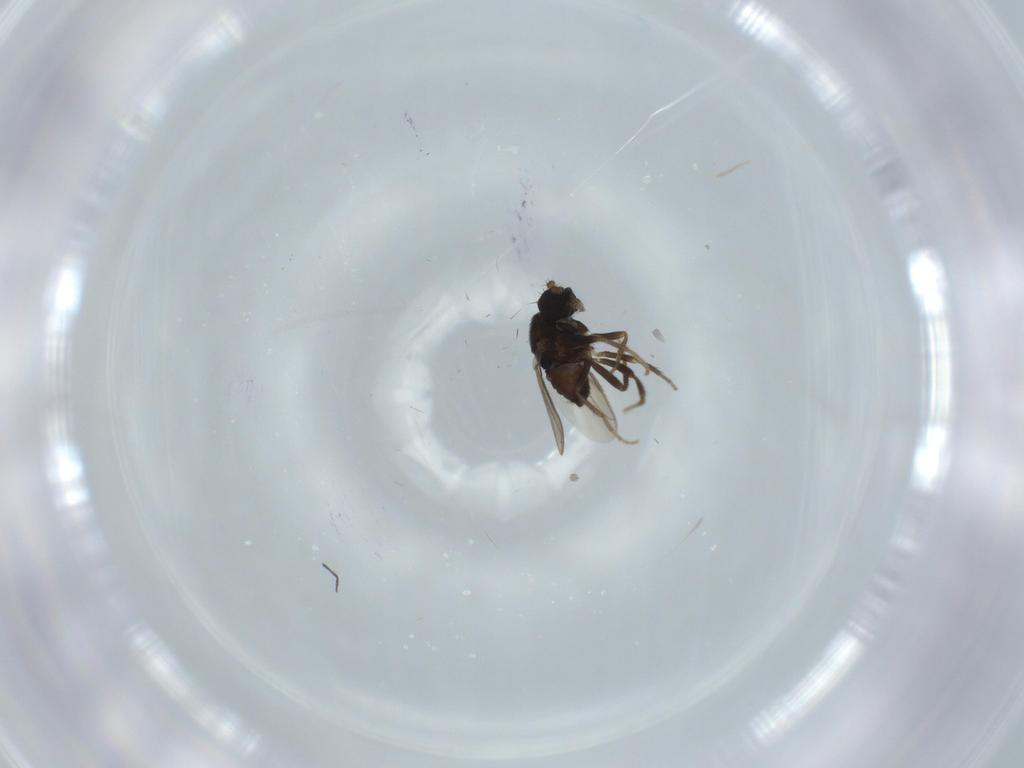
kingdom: Animalia
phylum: Arthropoda
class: Insecta
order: Diptera
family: Sphaeroceridae
